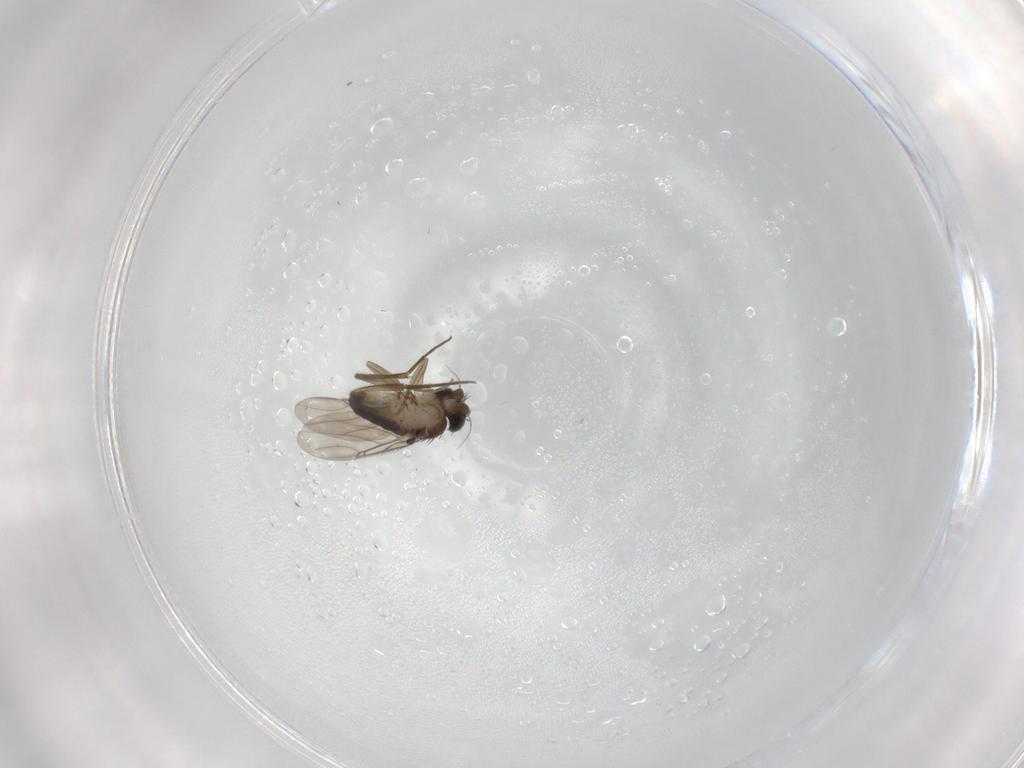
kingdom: Animalia
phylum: Arthropoda
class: Insecta
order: Diptera
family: Phoridae
